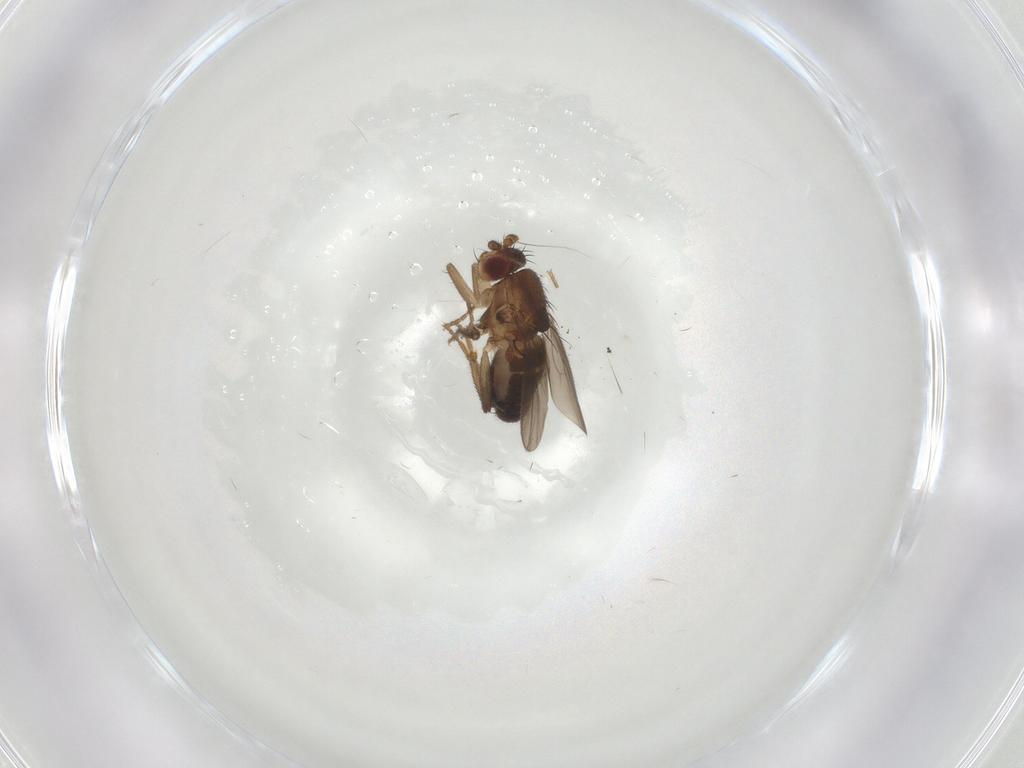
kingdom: Animalia
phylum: Arthropoda
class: Insecta
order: Diptera
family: Sphaeroceridae
